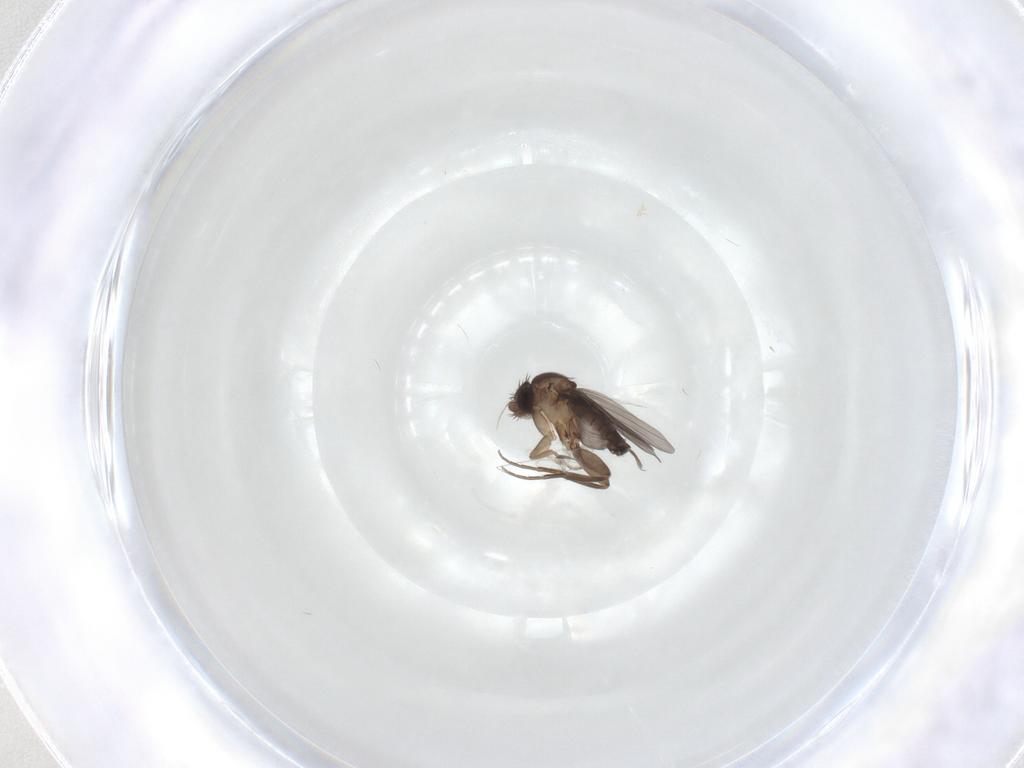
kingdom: Animalia
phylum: Arthropoda
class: Insecta
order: Diptera
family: Phoridae
